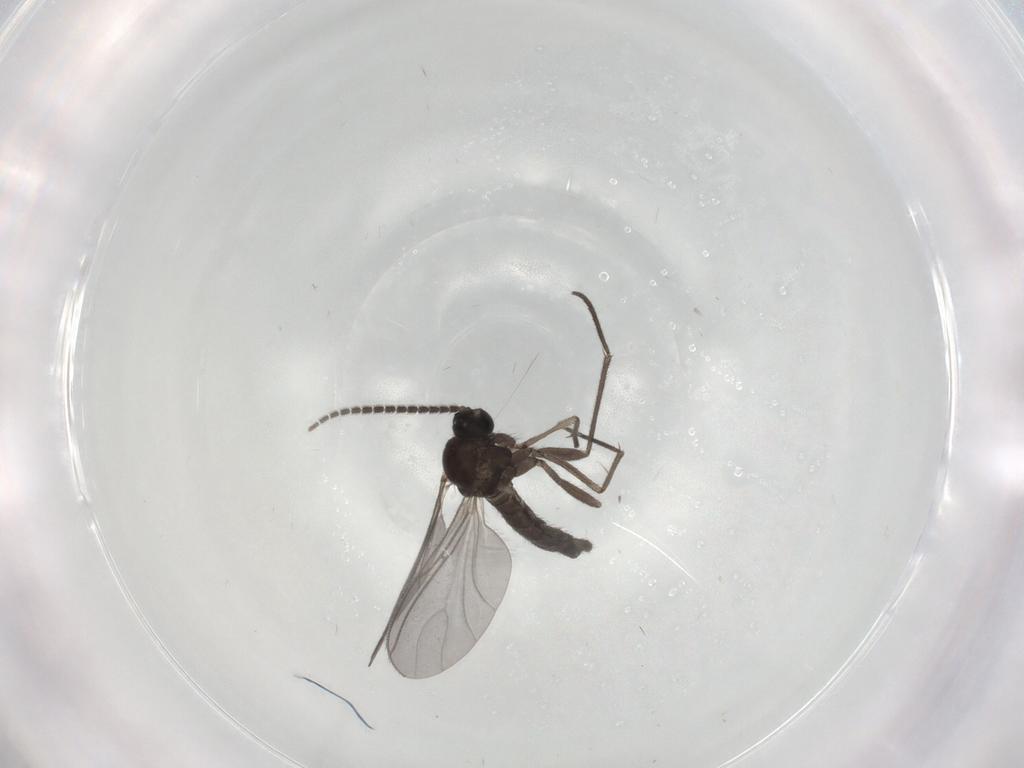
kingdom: Animalia
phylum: Arthropoda
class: Insecta
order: Diptera
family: Sciaridae
